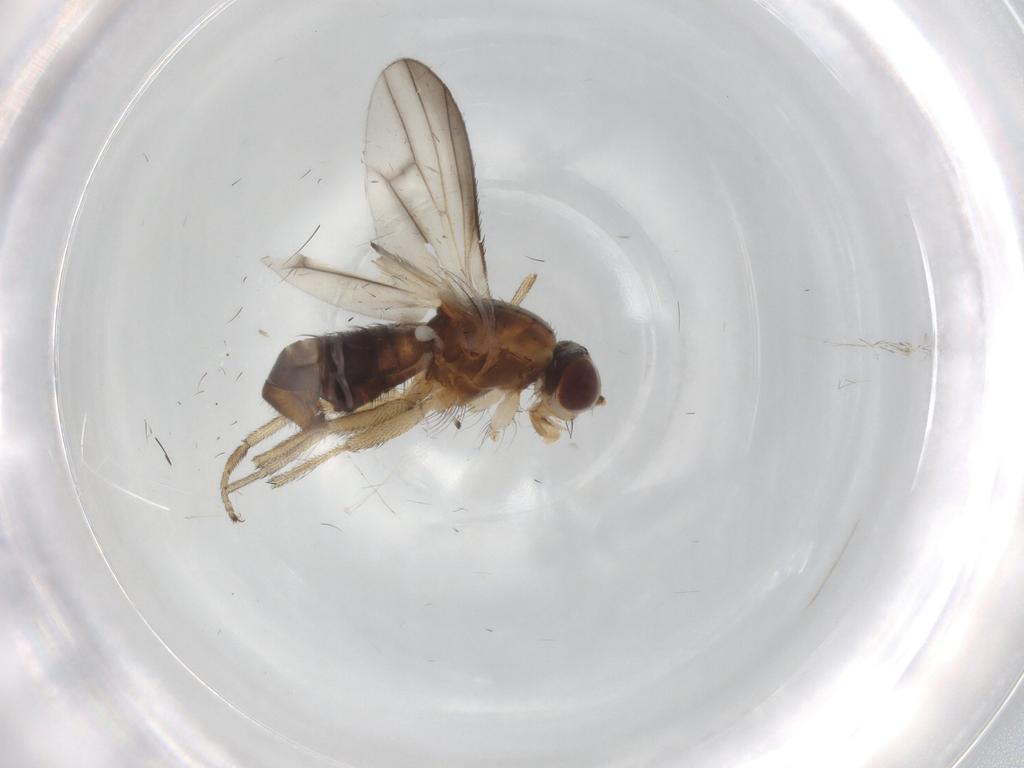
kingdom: Animalia
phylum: Arthropoda
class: Insecta
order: Diptera
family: Heleomyzidae
